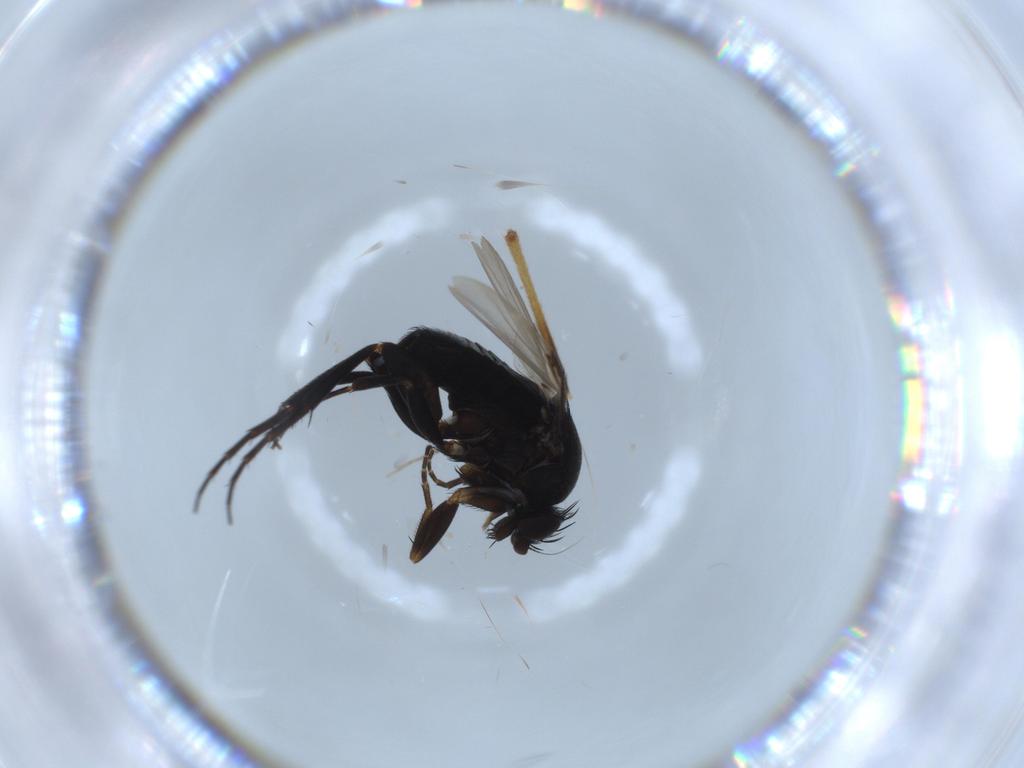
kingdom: Animalia
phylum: Arthropoda
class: Insecta
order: Diptera
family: Phoridae
